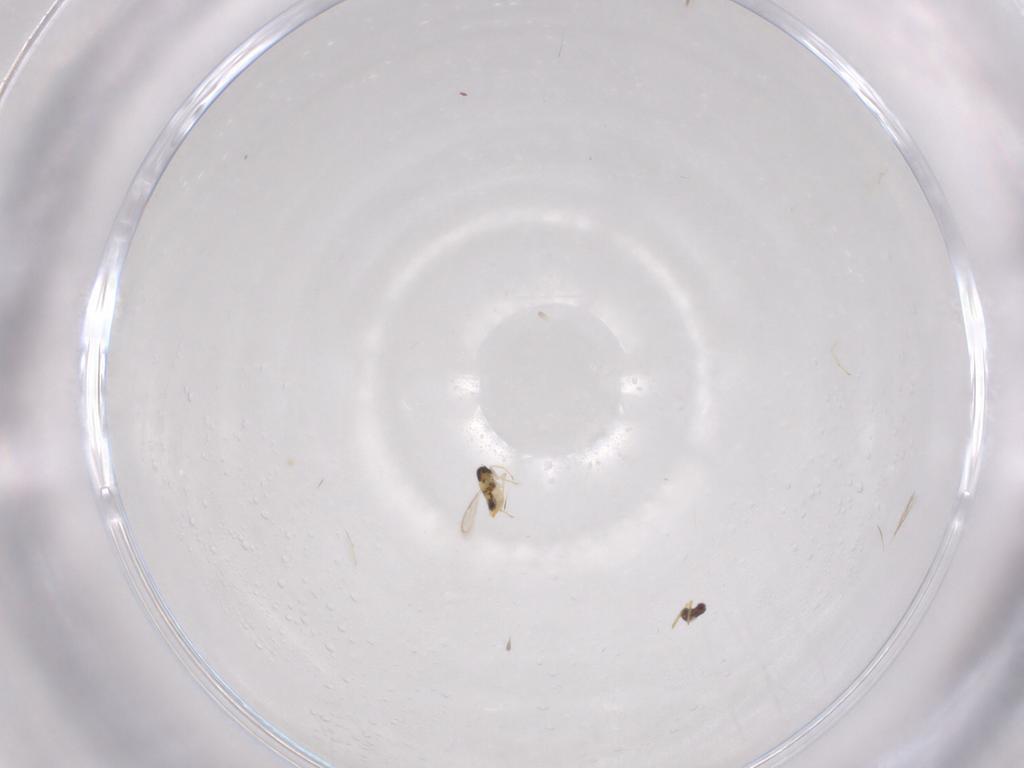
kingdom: Animalia
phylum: Arthropoda
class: Insecta
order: Hymenoptera
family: Aphelinidae
